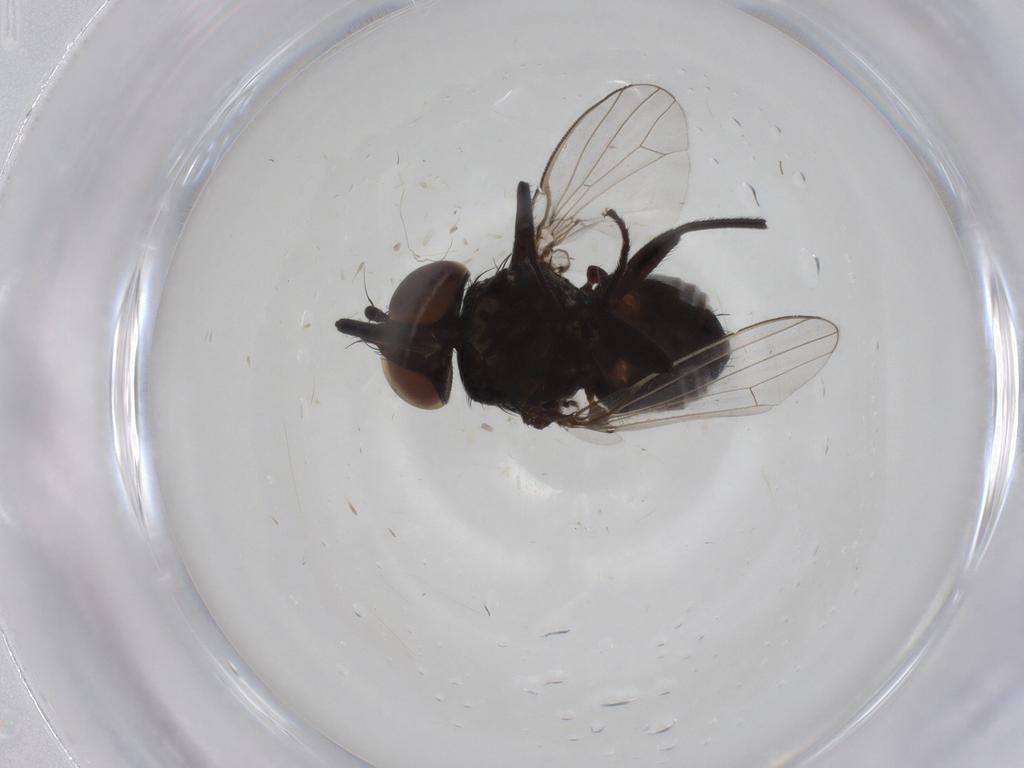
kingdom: Animalia
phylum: Arthropoda
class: Insecta
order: Diptera
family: Milichiidae
